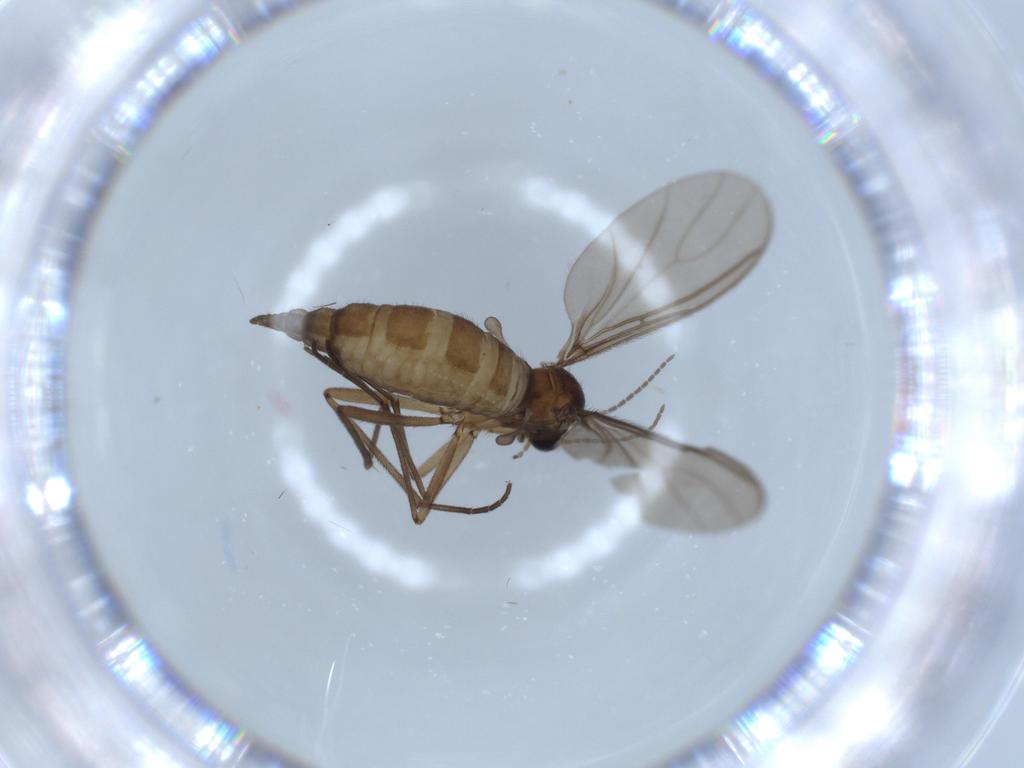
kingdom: Animalia
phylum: Arthropoda
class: Insecta
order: Diptera
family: Sciaridae
